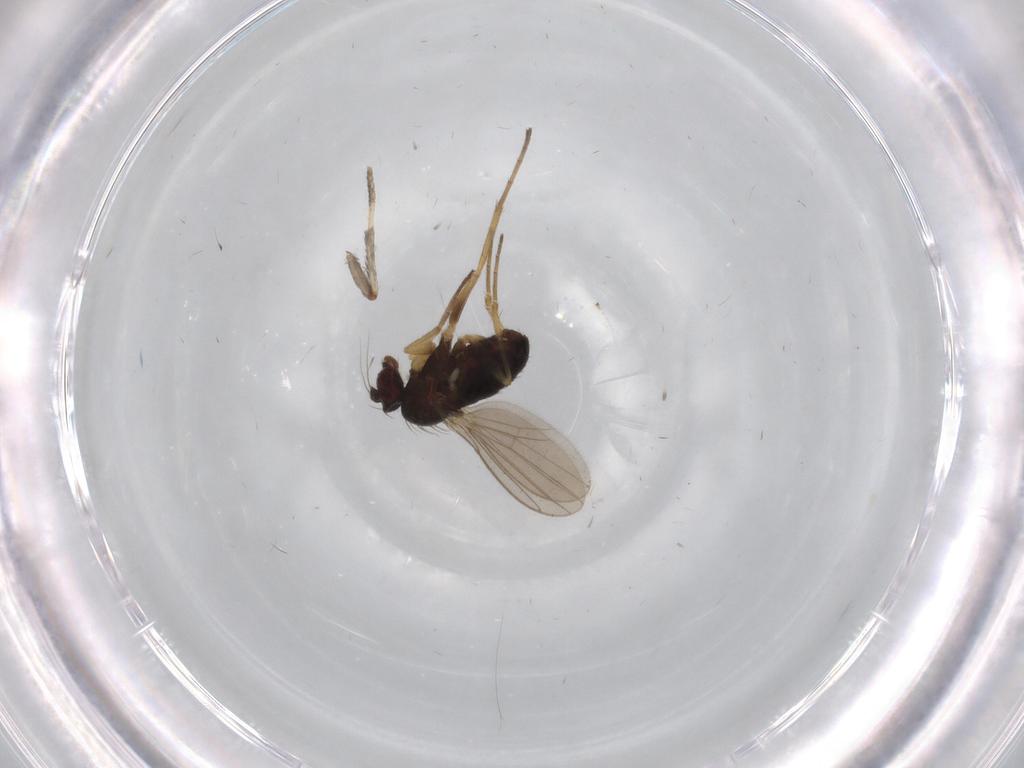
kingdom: Animalia
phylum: Arthropoda
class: Insecta
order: Diptera
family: Dolichopodidae
